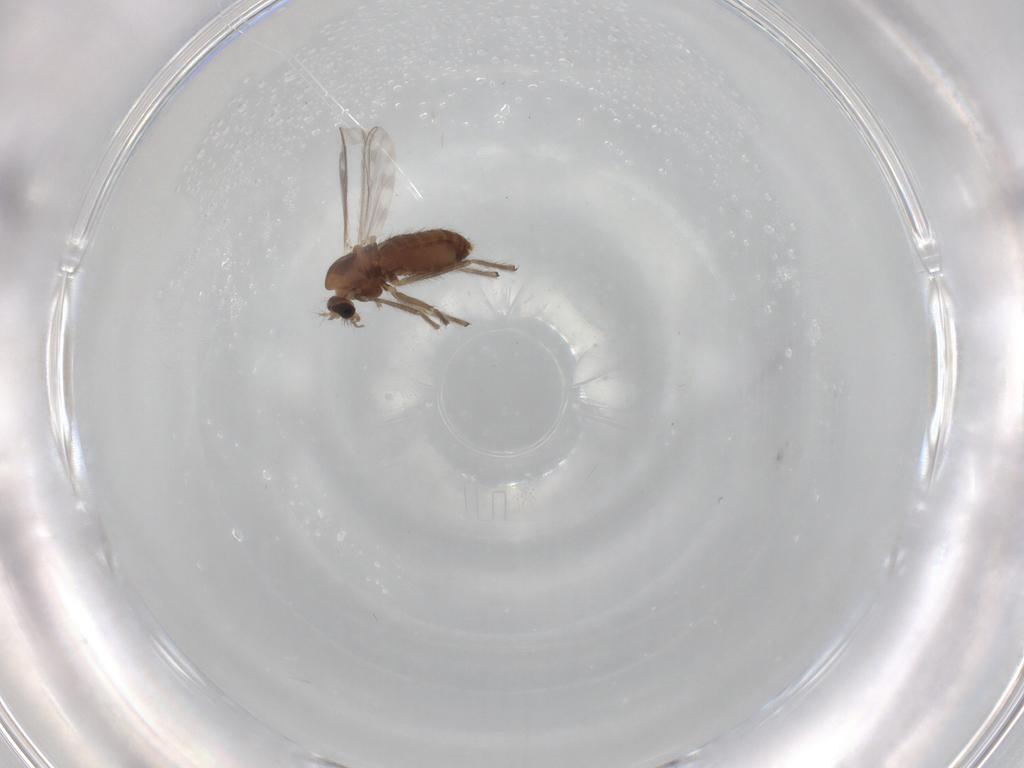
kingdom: Animalia
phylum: Arthropoda
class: Insecta
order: Diptera
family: Chironomidae
